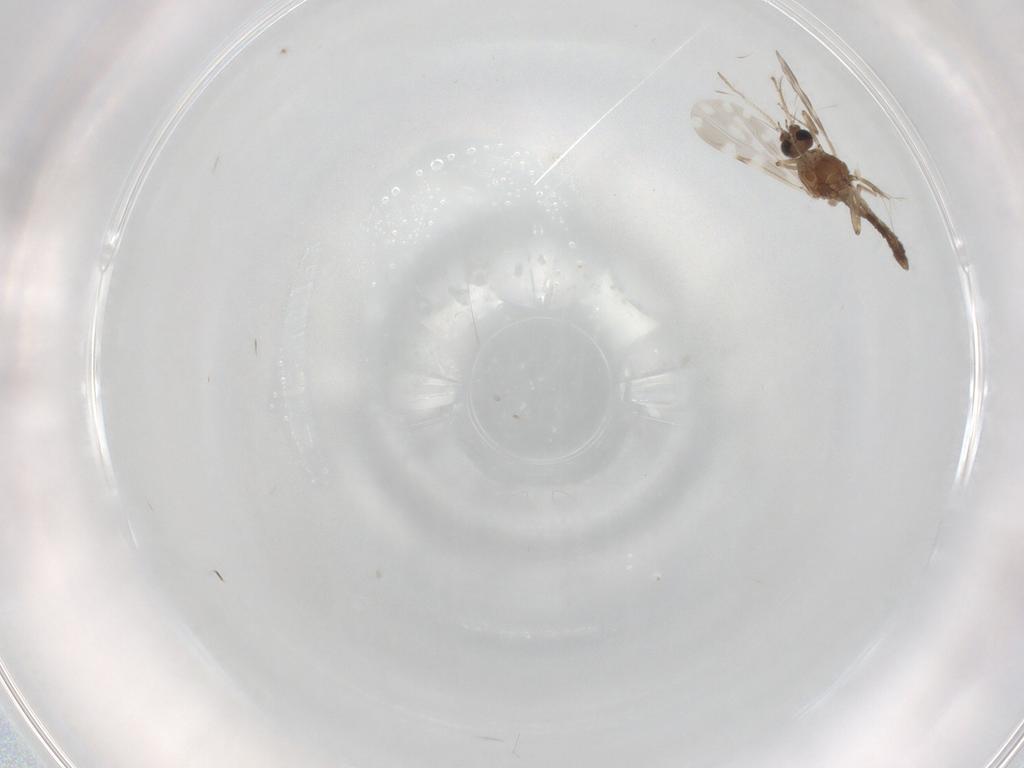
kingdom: Animalia
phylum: Arthropoda
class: Insecta
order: Diptera
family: Ceratopogonidae
